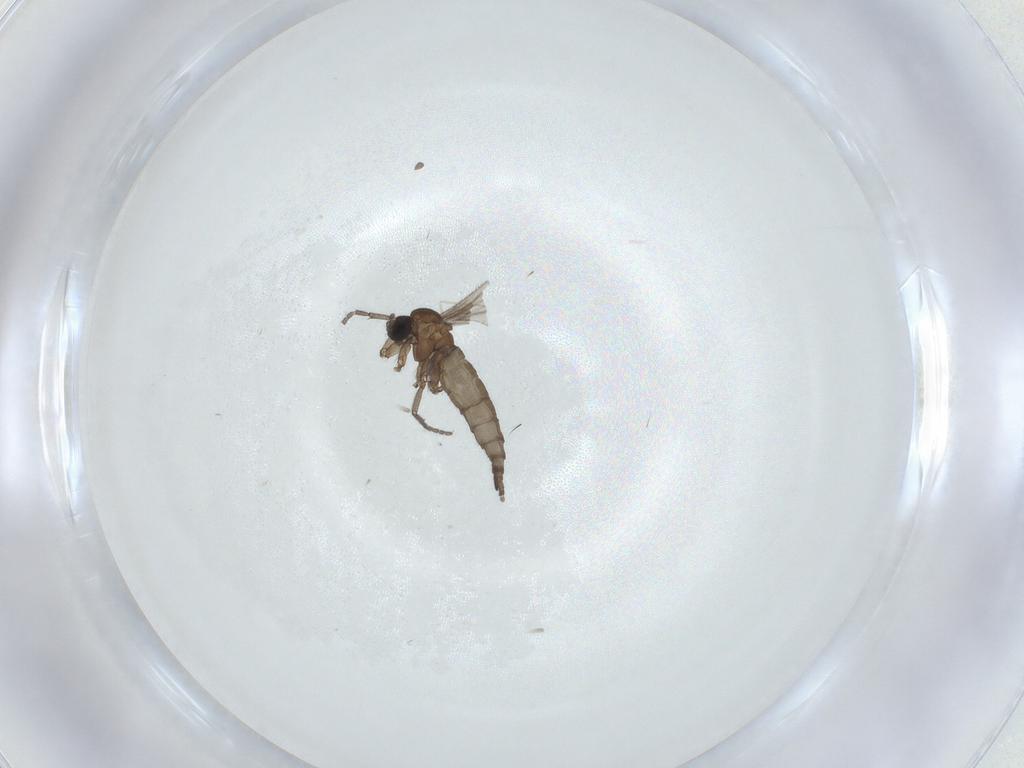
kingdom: Animalia
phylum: Arthropoda
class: Insecta
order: Diptera
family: Sciaridae
